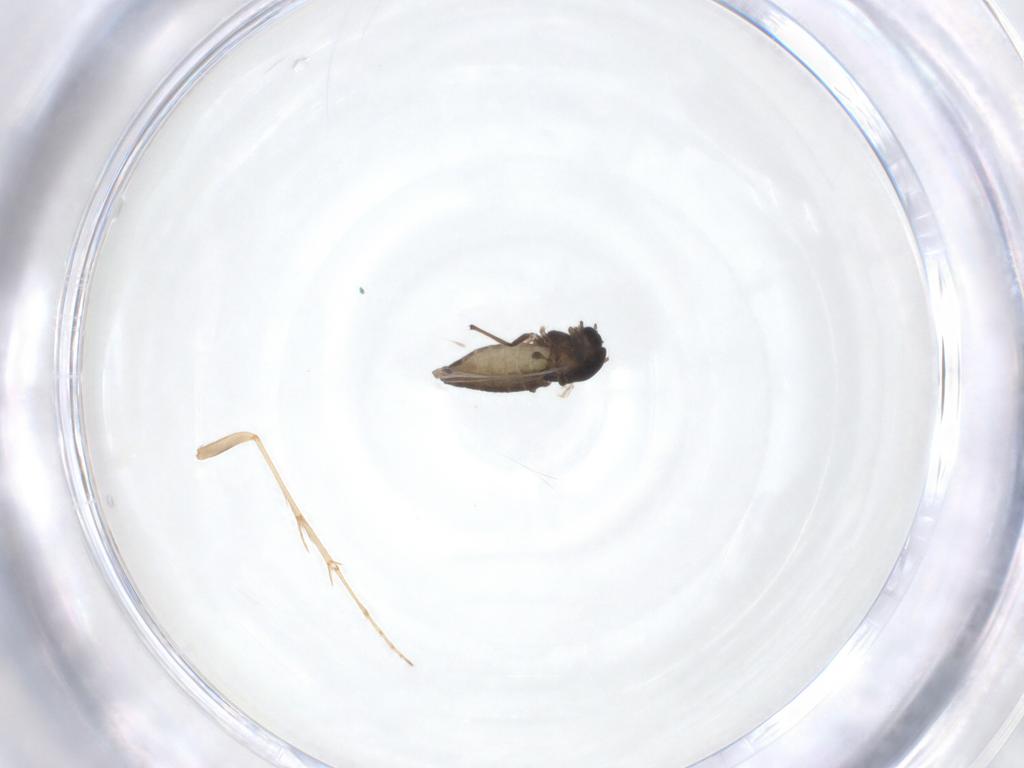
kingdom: Animalia
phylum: Arthropoda
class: Insecta
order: Diptera
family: Chironomidae
